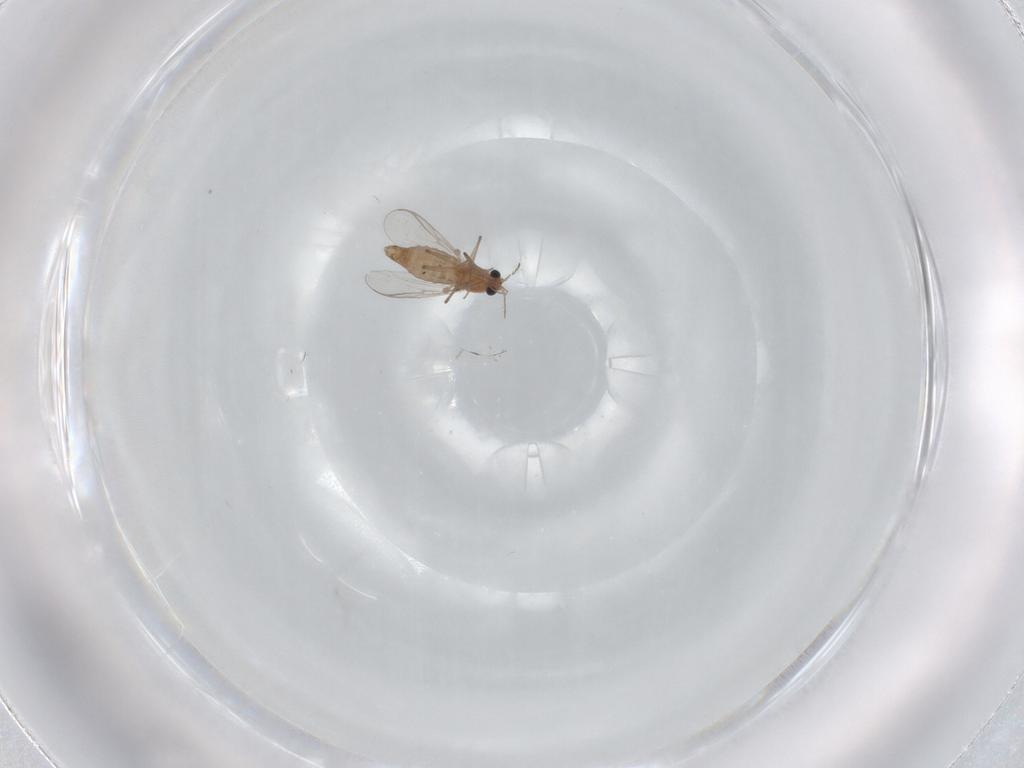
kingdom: Animalia
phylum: Arthropoda
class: Insecta
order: Diptera
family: Chironomidae
